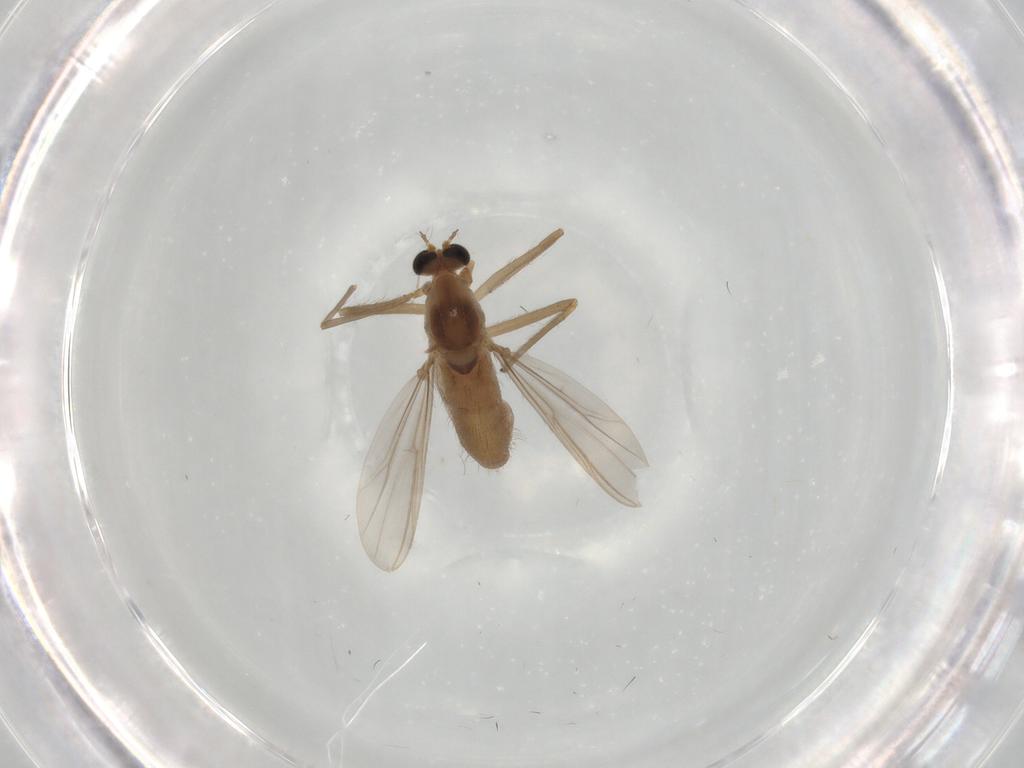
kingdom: Animalia
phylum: Arthropoda
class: Insecta
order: Diptera
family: Chironomidae
